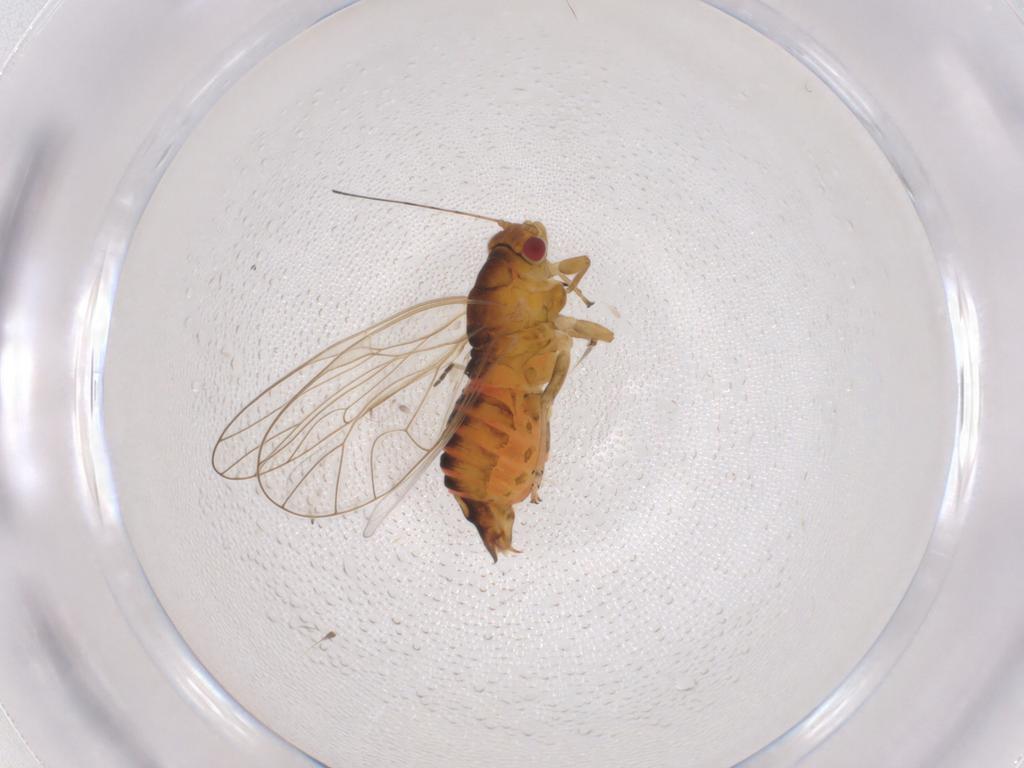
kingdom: Animalia
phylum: Arthropoda
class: Insecta
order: Hemiptera
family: Psyllidae
